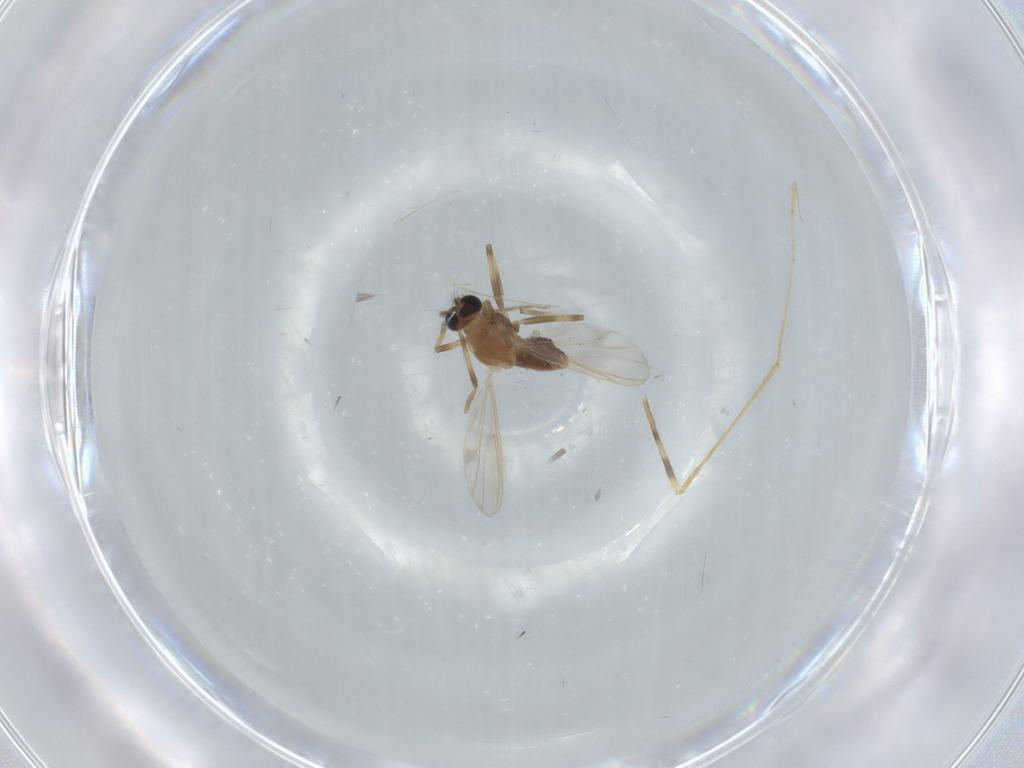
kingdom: Animalia
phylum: Arthropoda
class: Insecta
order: Diptera
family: Chironomidae
